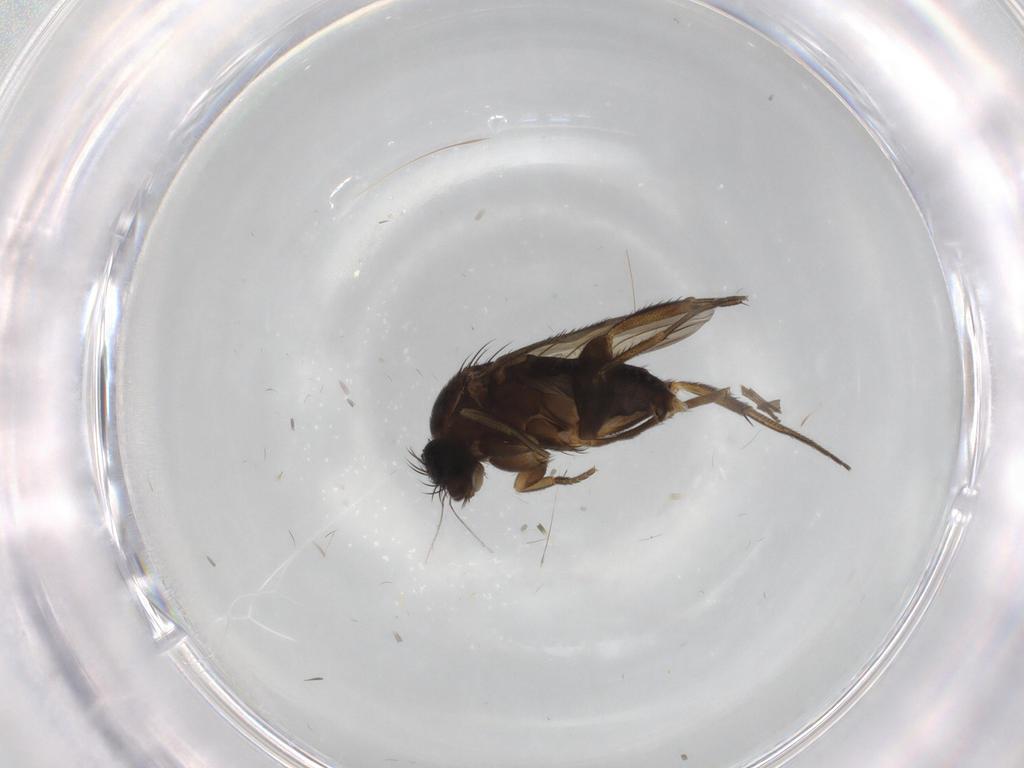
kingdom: Animalia
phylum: Arthropoda
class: Insecta
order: Diptera
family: Phoridae
